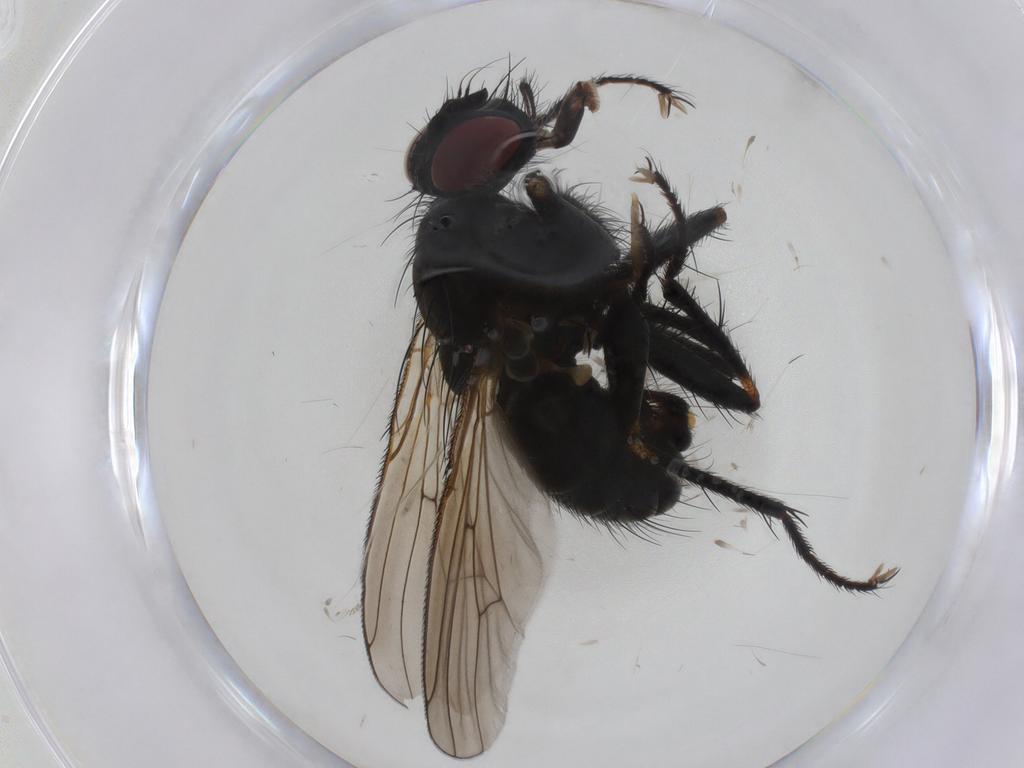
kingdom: Animalia
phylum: Arthropoda
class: Insecta
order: Diptera
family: Muscidae
